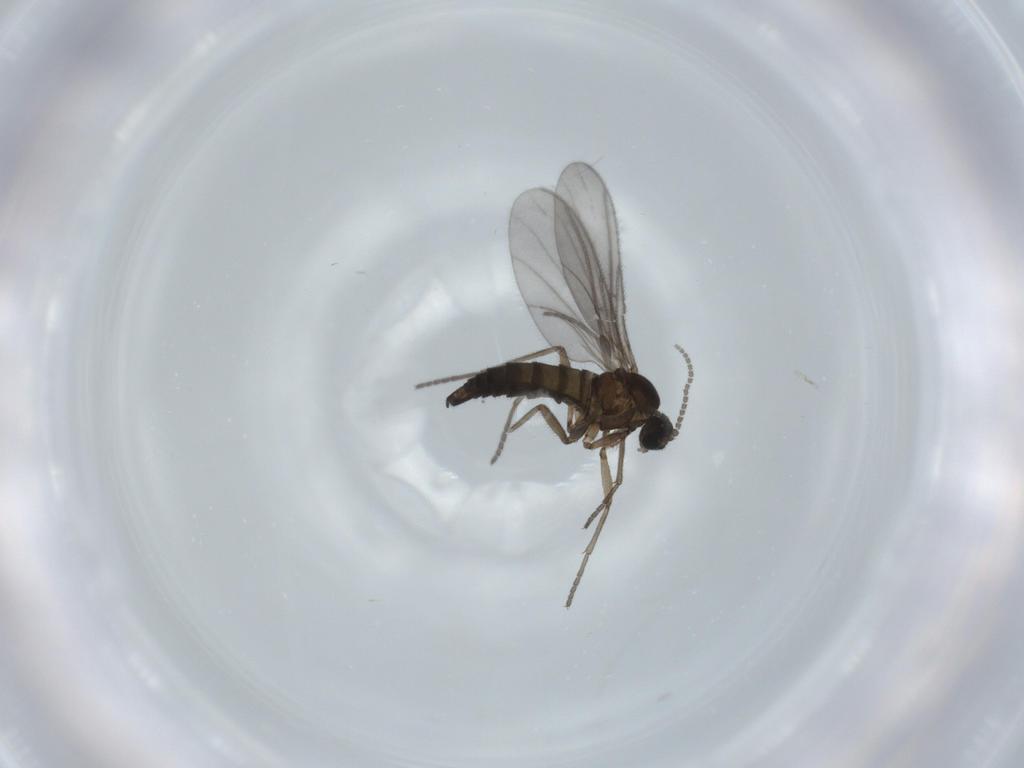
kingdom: Animalia
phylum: Arthropoda
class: Insecta
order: Diptera
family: Sciaridae
